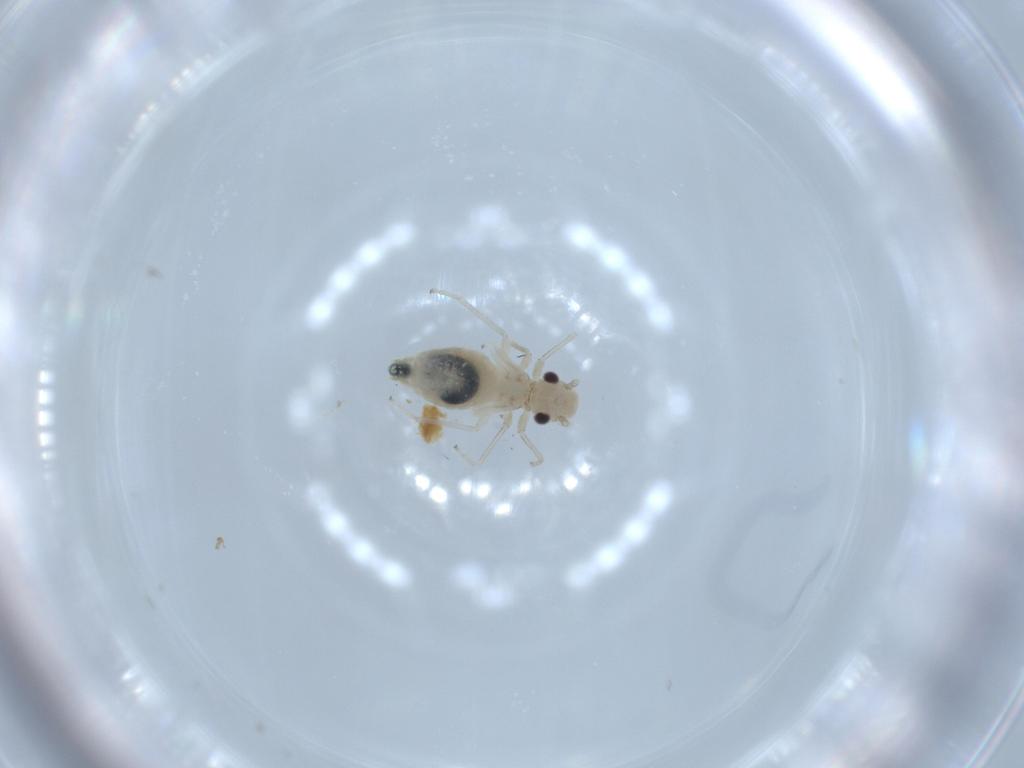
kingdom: Animalia
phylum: Arthropoda
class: Insecta
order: Psocodea
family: Caeciliusidae
